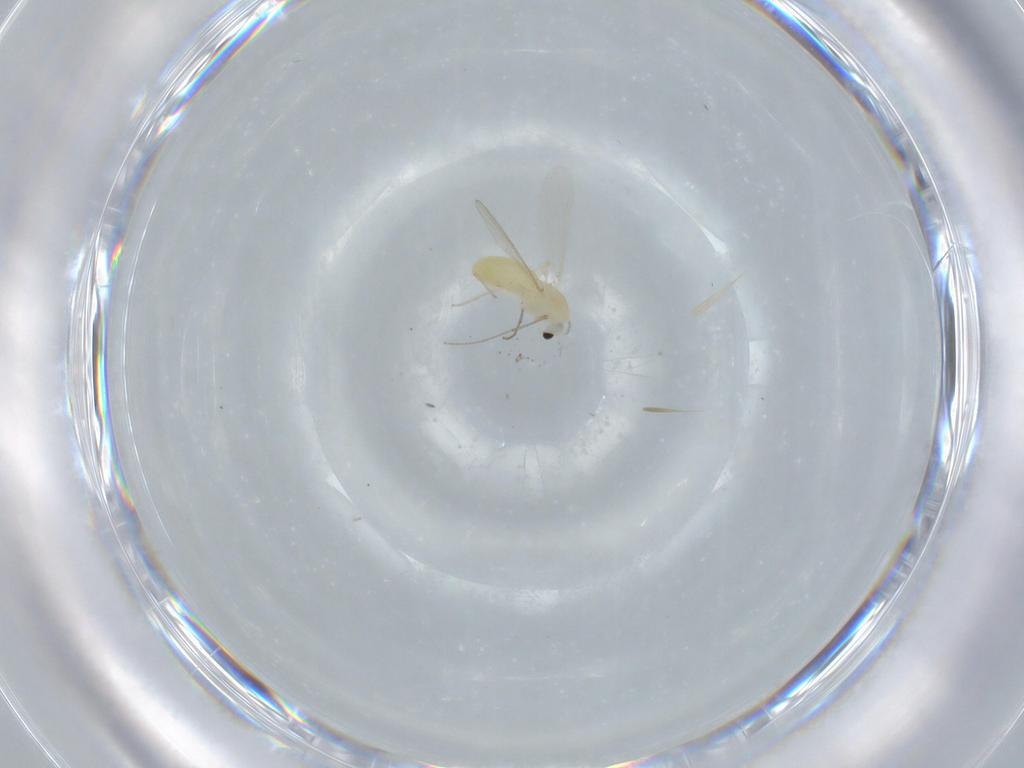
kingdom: Animalia
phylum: Arthropoda
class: Insecta
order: Diptera
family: Chironomidae
